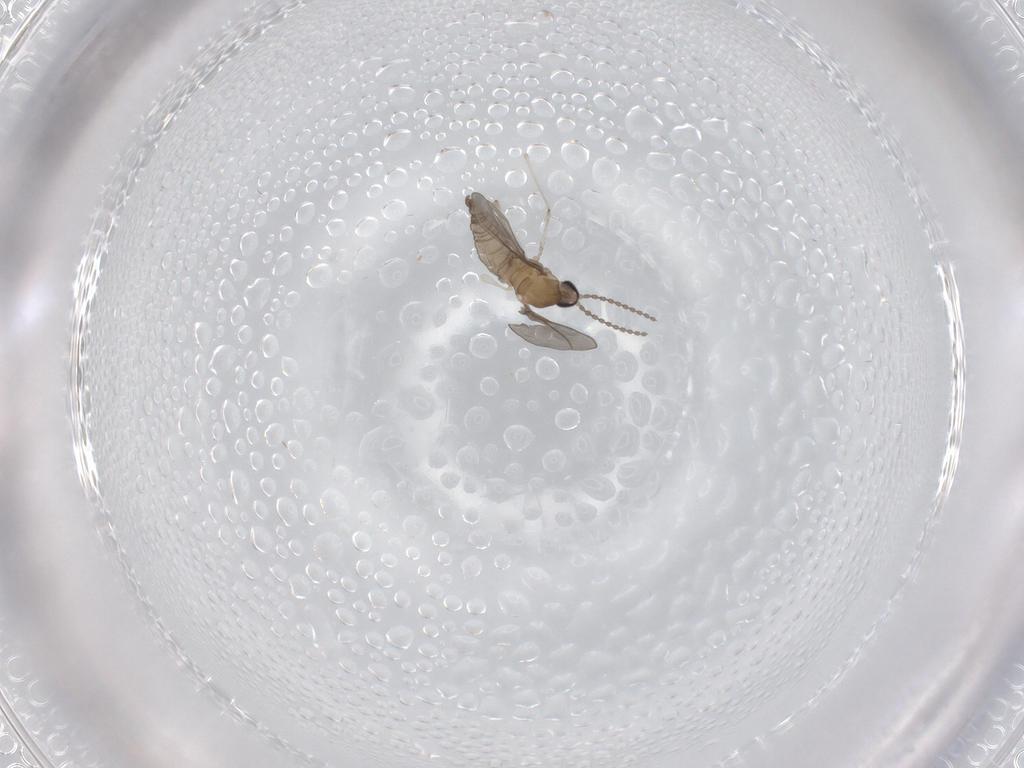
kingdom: Animalia
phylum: Arthropoda
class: Insecta
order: Diptera
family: Cecidomyiidae
